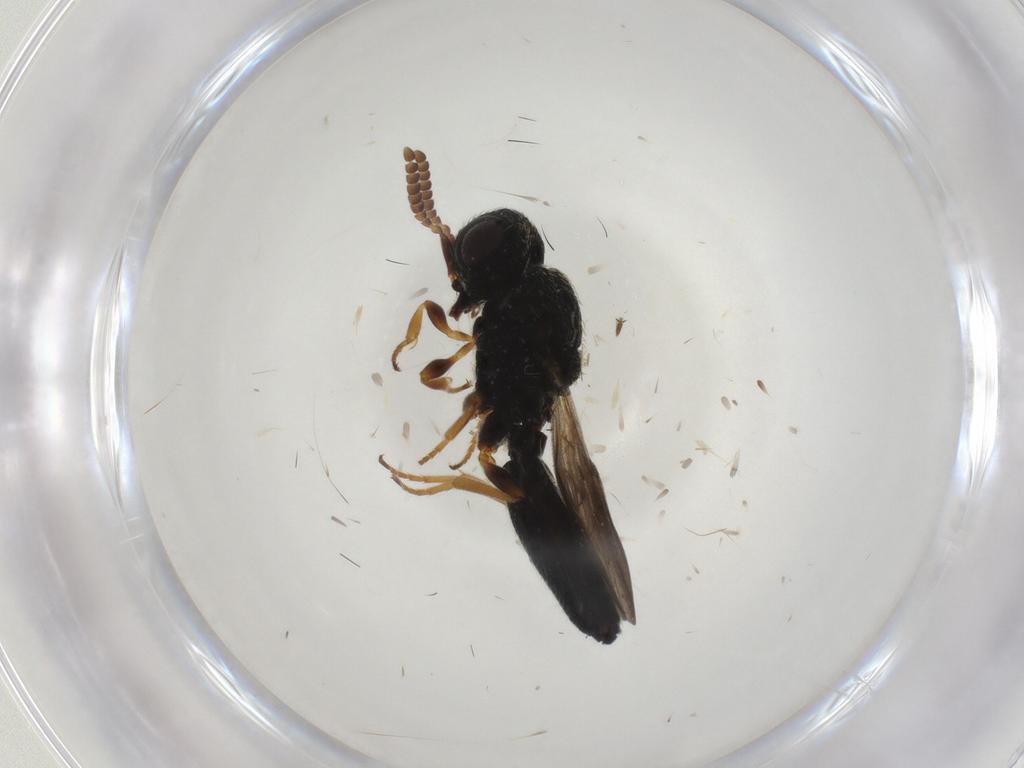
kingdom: Animalia
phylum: Arthropoda
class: Insecta
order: Hymenoptera
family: Scelionidae
